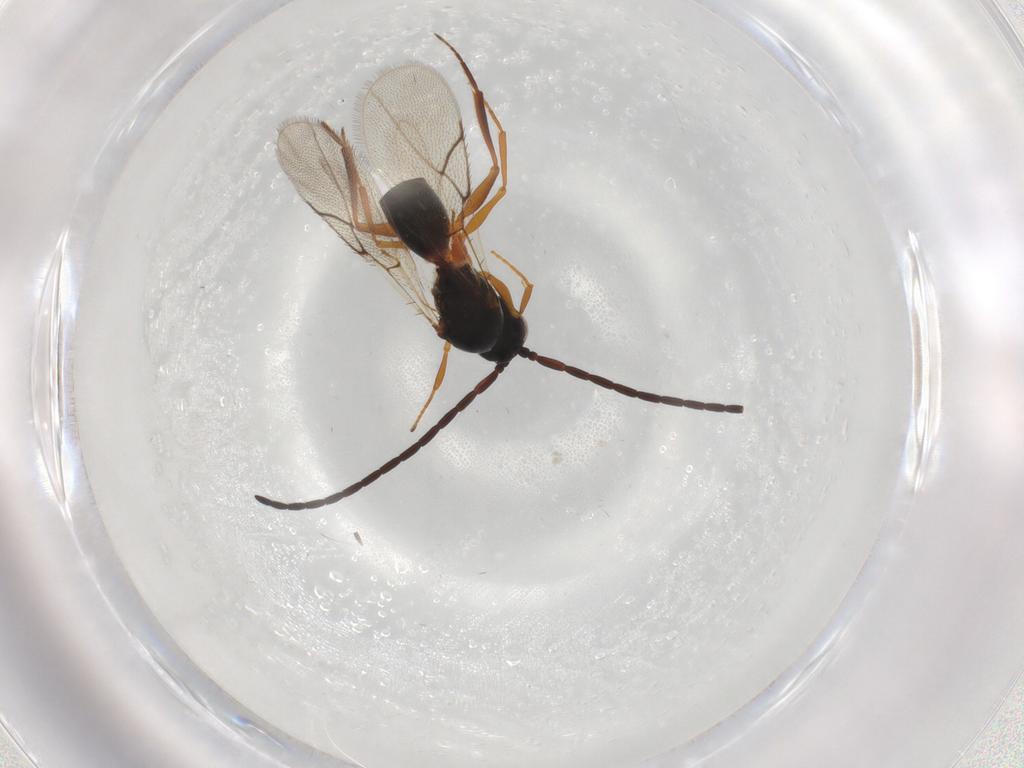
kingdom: Animalia
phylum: Arthropoda
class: Insecta
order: Hymenoptera
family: Figitidae
